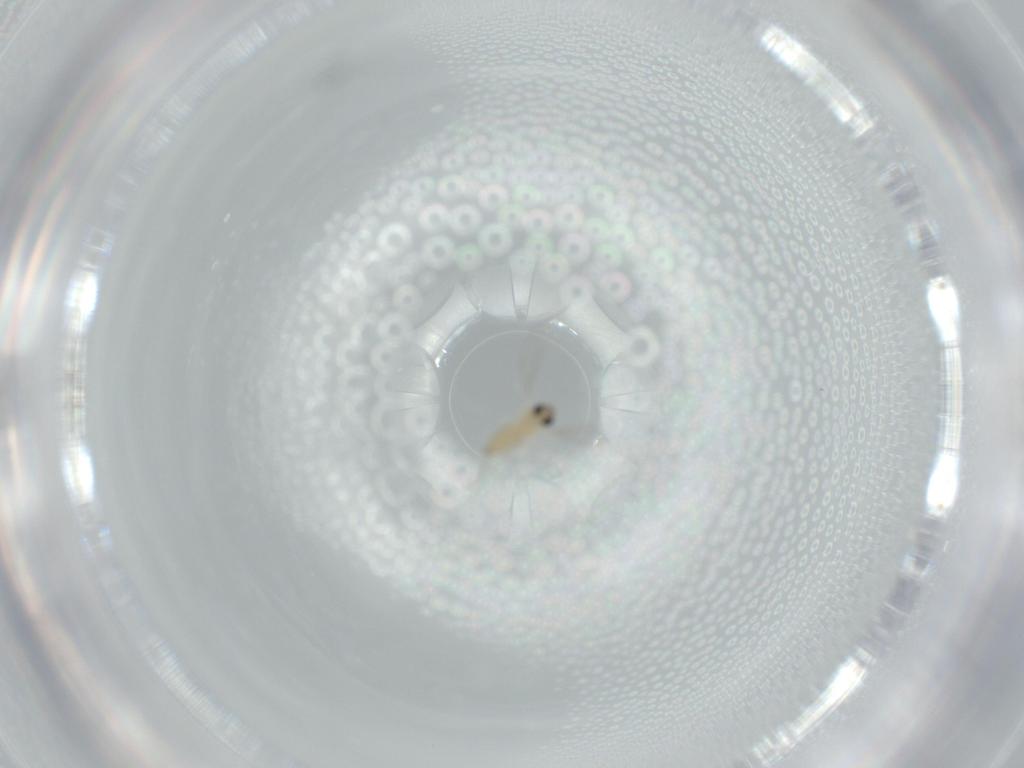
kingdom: Animalia
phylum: Arthropoda
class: Insecta
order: Diptera
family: Cecidomyiidae
